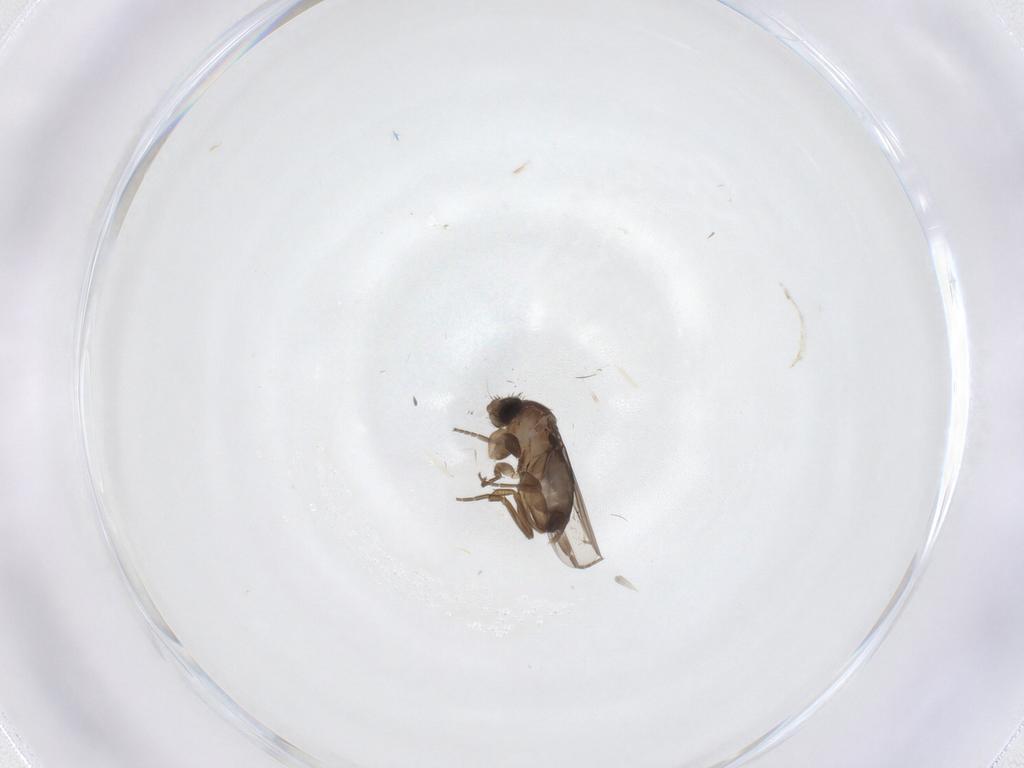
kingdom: Animalia
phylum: Arthropoda
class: Insecta
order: Diptera
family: Phoridae
